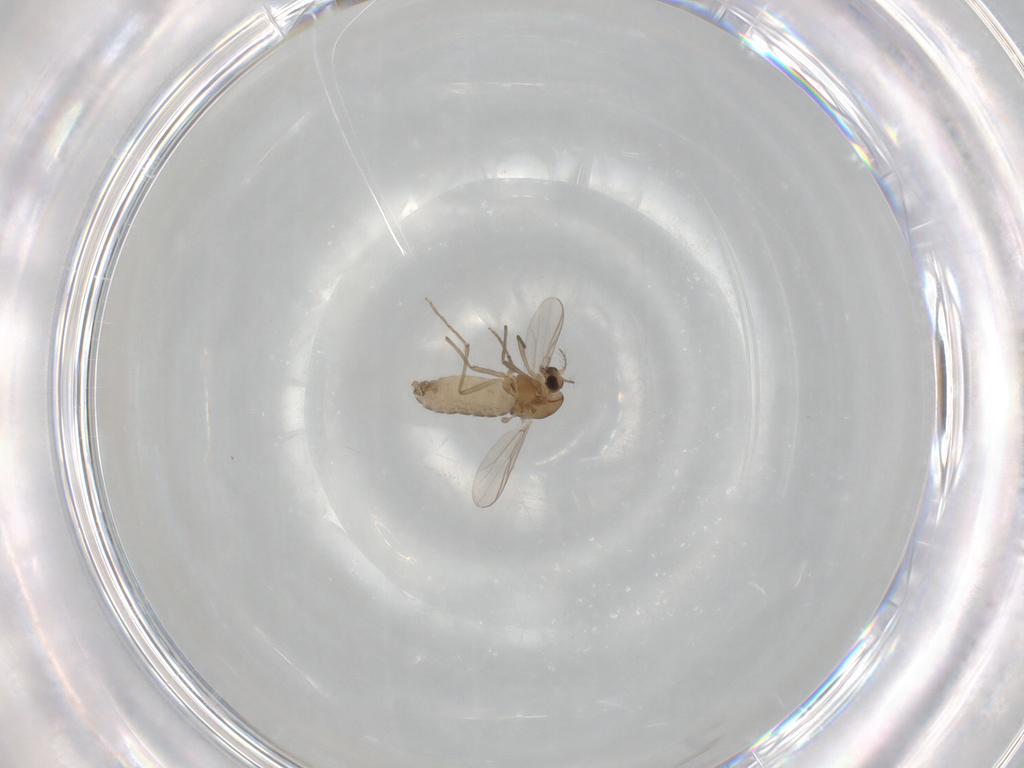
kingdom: Animalia
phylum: Arthropoda
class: Insecta
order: Diptera
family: Chironomidae
